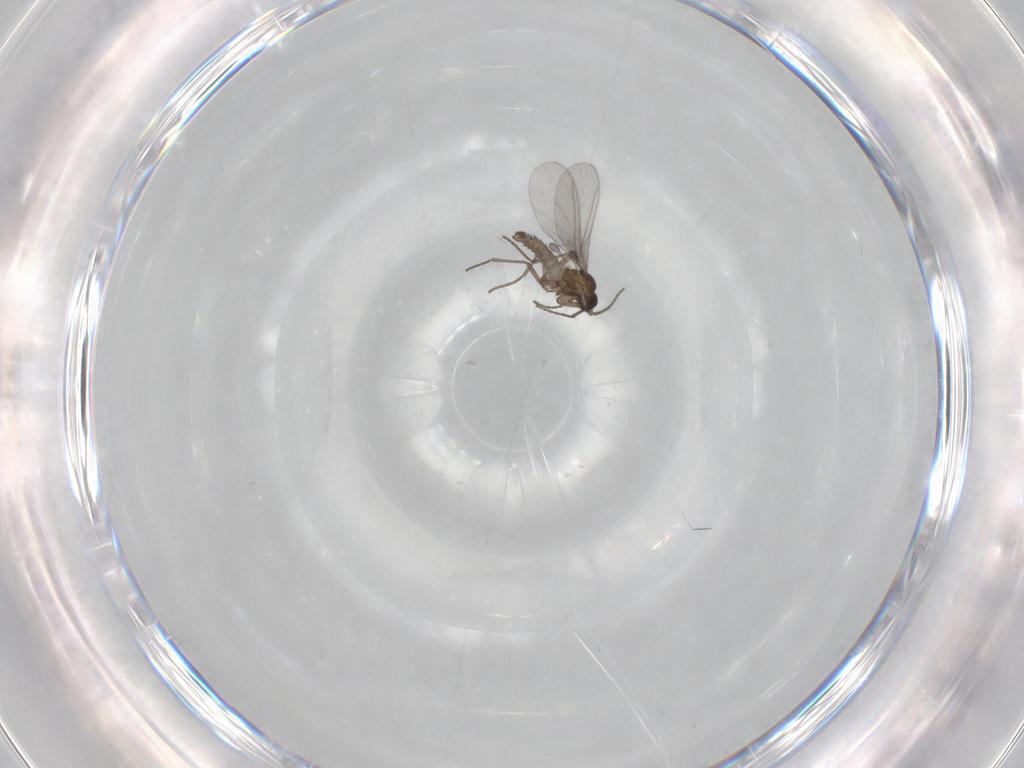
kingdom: Animalia
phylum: Arthropoda
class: Insecta
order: Diptera
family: Sciaridae
